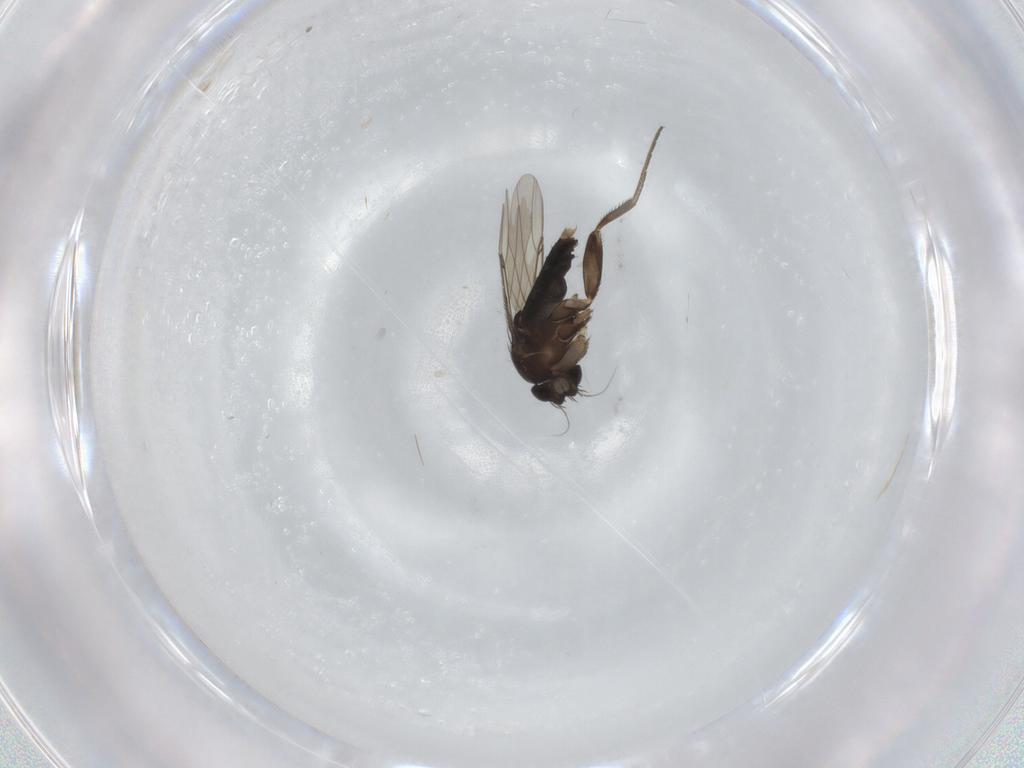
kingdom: Animalia
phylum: Arthropoda
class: Insecta
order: Diptera
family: Phoridae
